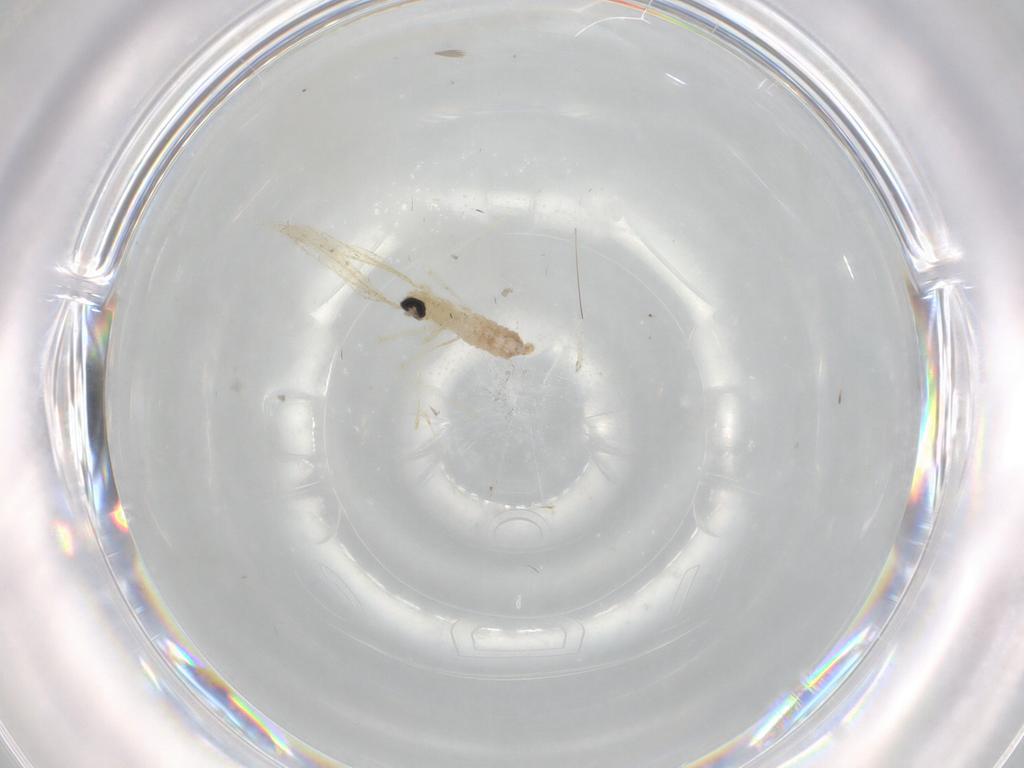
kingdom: Animalia
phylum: Arthropoda
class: Insecta
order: Diptera
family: Cecidomyiidae
